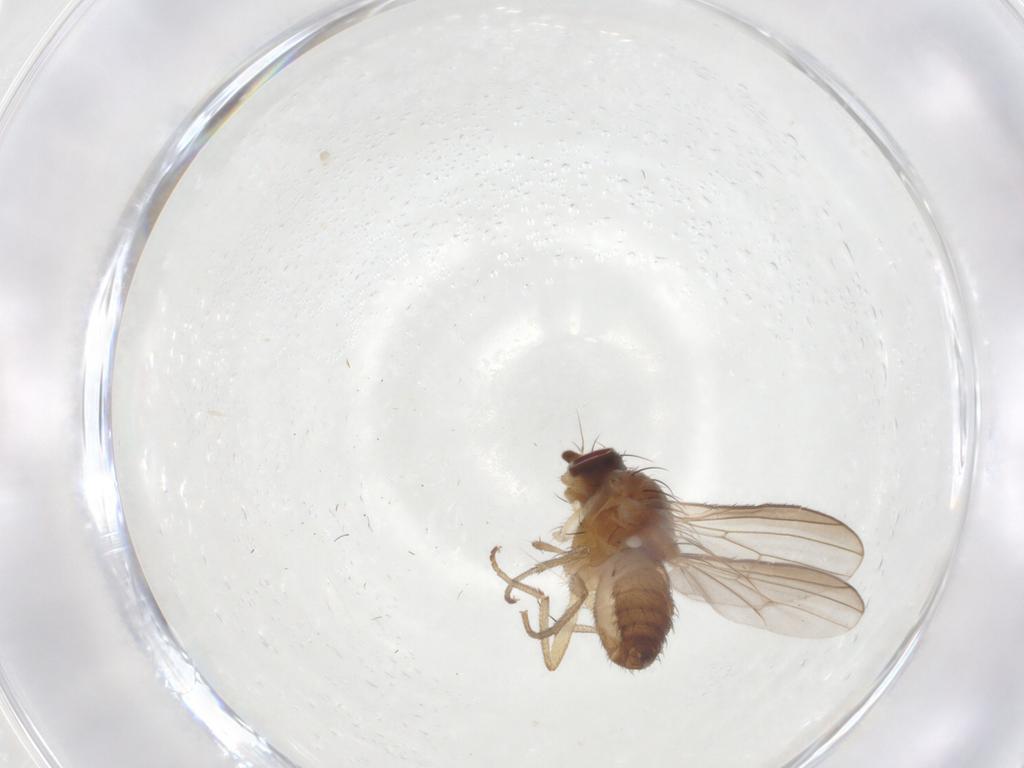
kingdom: Animalia
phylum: Arthropoda
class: Insecta
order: Diptera
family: Heleomyzidae
